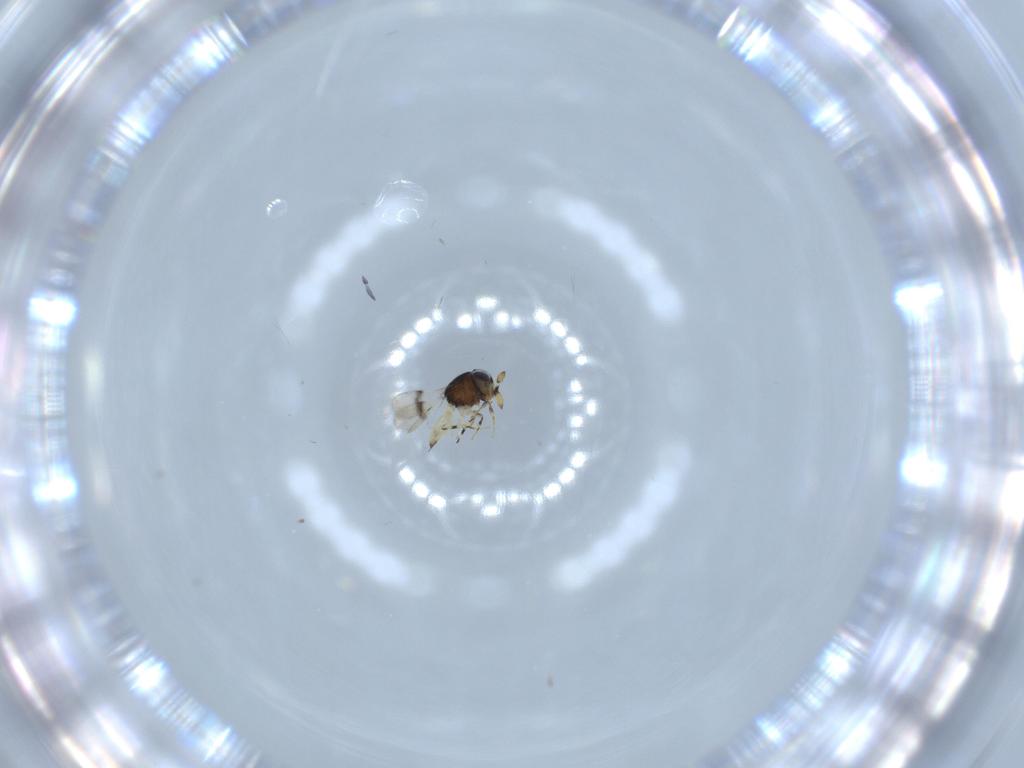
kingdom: Animalia
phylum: Arthropoda
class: Insecta
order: Hymenoptera
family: Scelionidae
